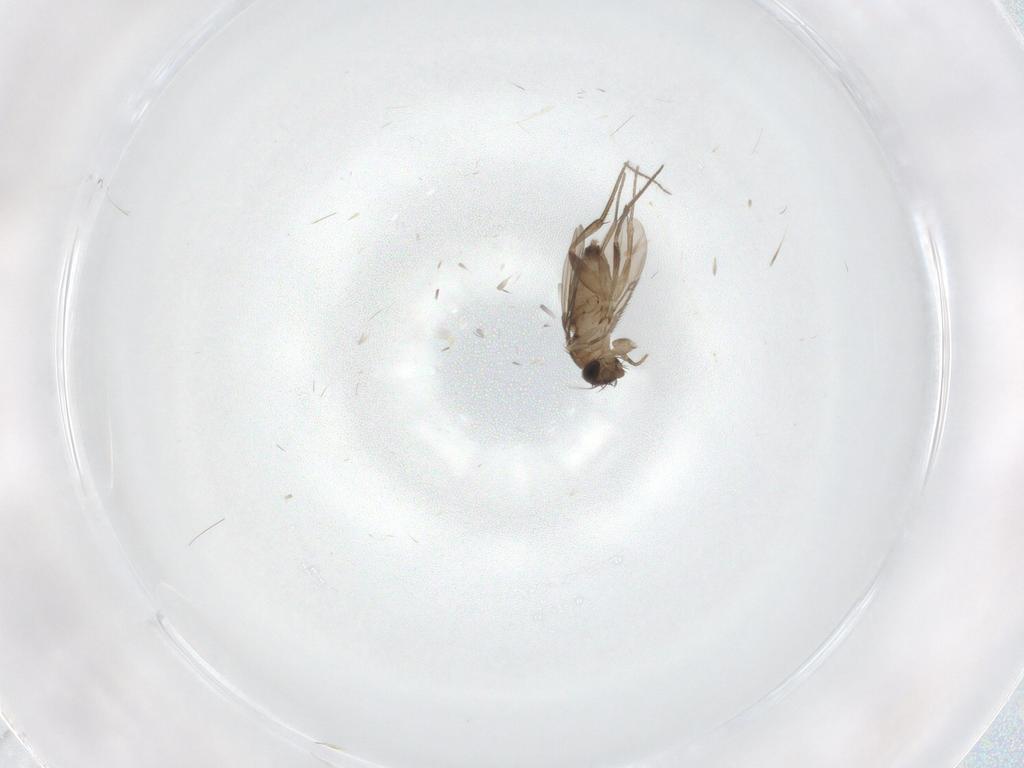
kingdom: Animalia
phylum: Arthropoda
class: Insecta
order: Diptera
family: Phoridae
